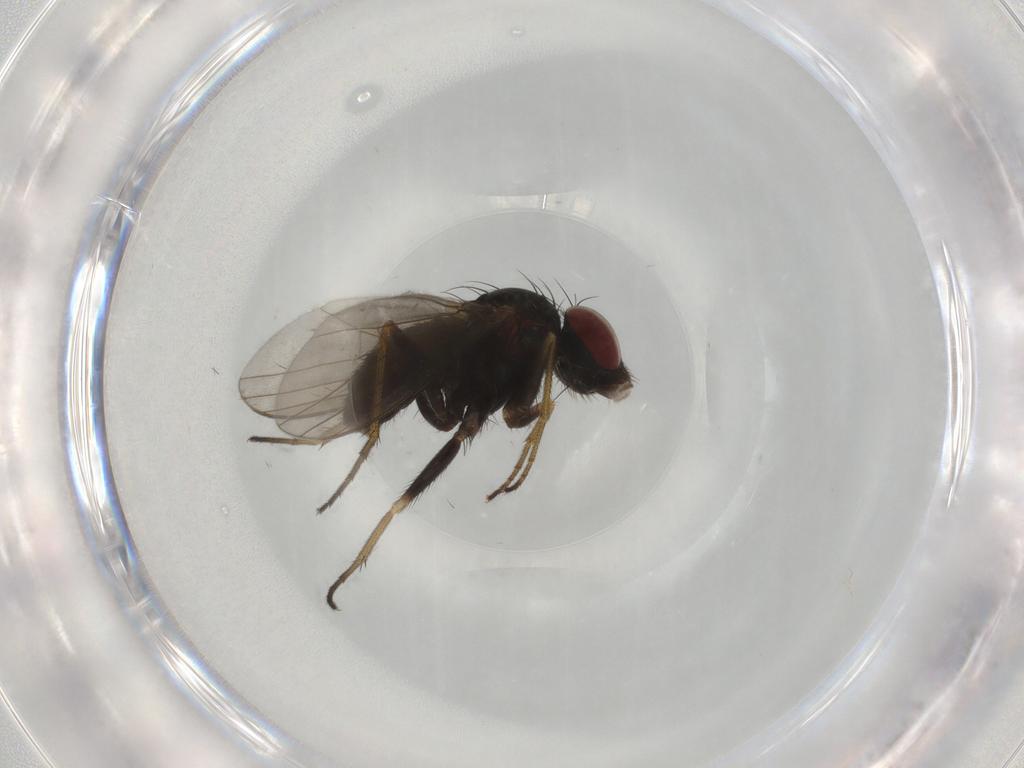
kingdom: Animalia
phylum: Arthropoda
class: Insecta
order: Diptera
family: Dolichopodidae
